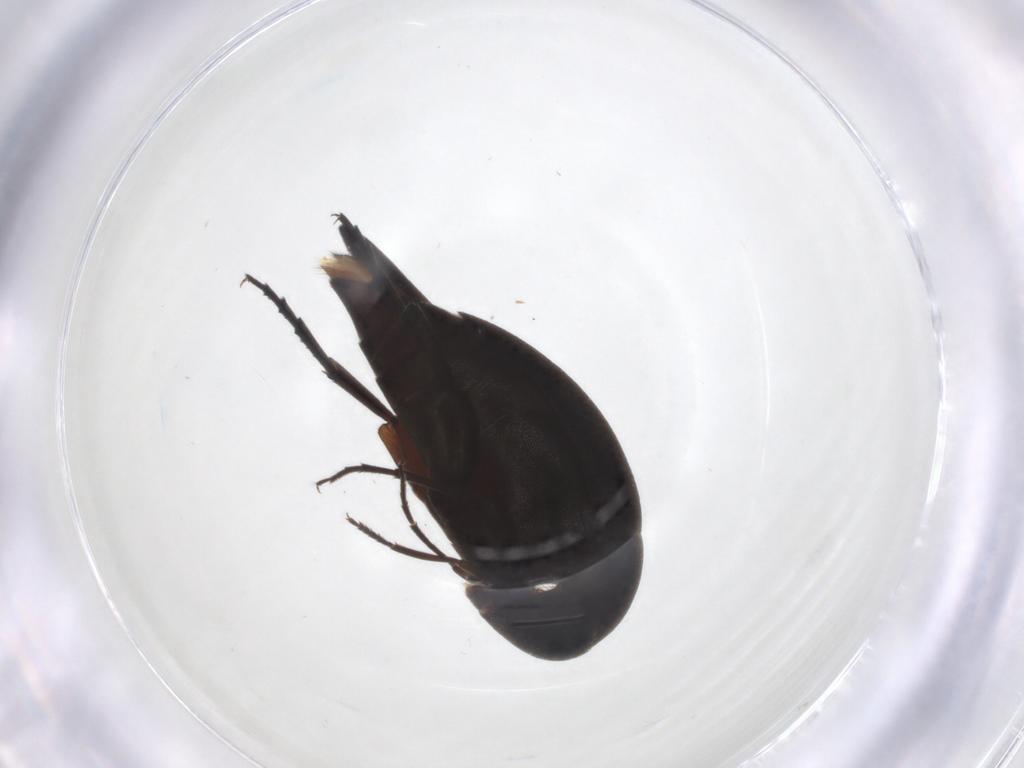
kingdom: Animalia
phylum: Arthropoda
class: Insecta
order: Coleoptera
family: Mordellidae
